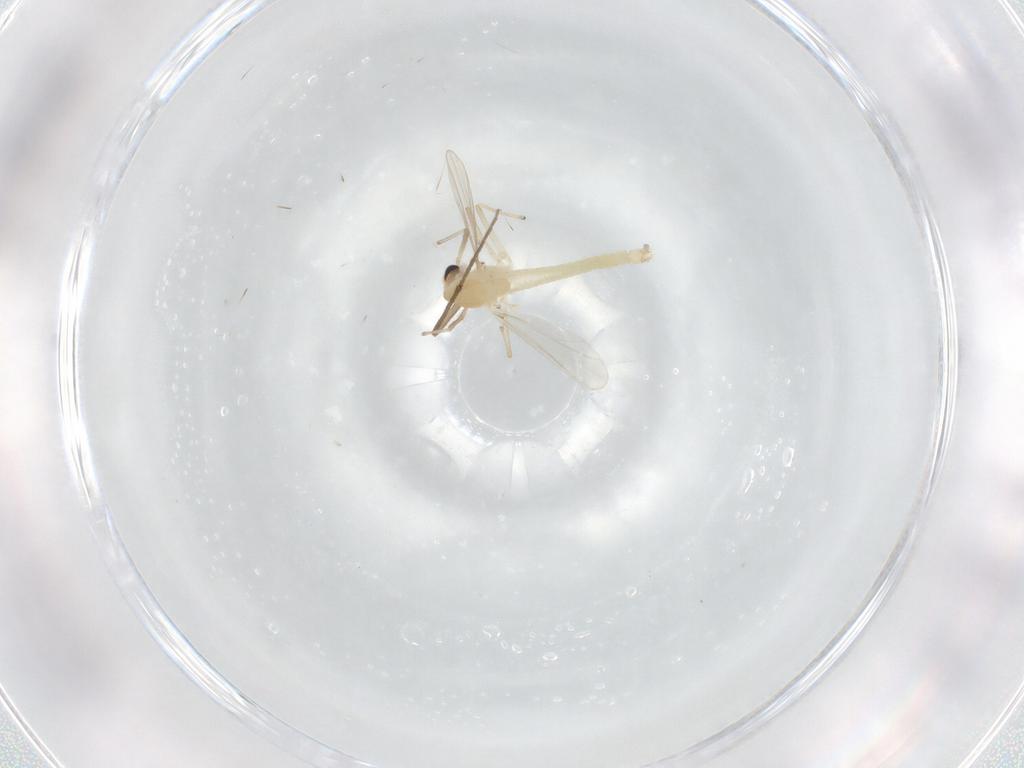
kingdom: Animalia
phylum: Arthropoda
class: Insecta
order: Diptera
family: Chironomidae
